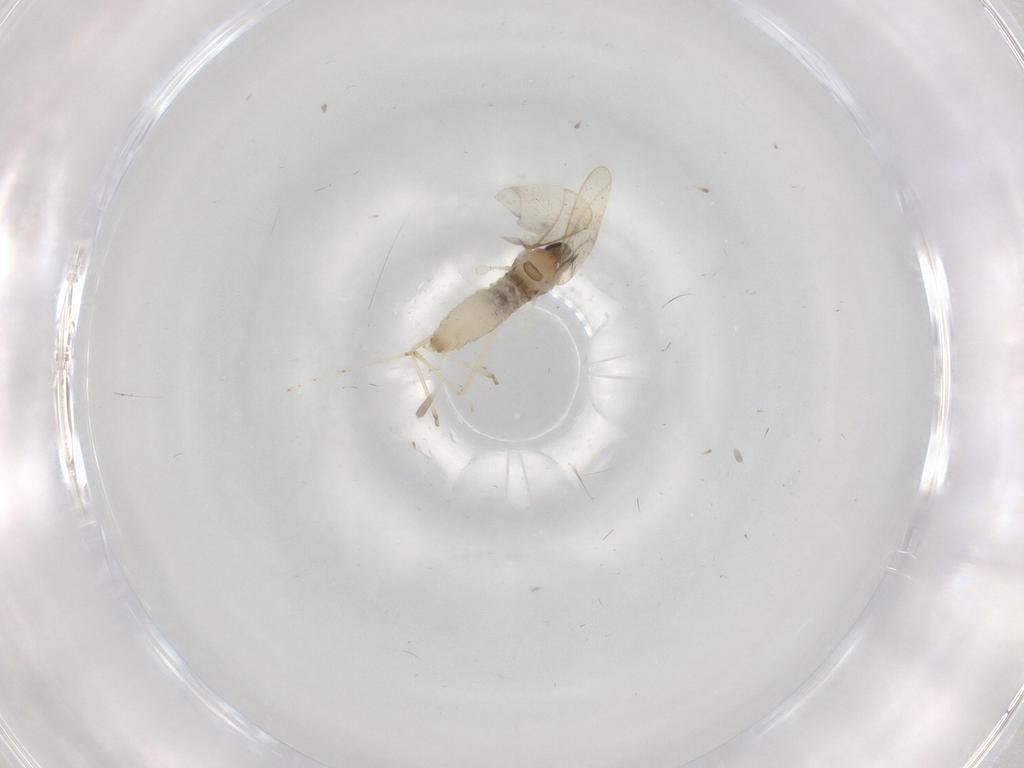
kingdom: Animalia
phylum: Arthropoda
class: Insecta
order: Diptera
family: Cecidomyiidae
